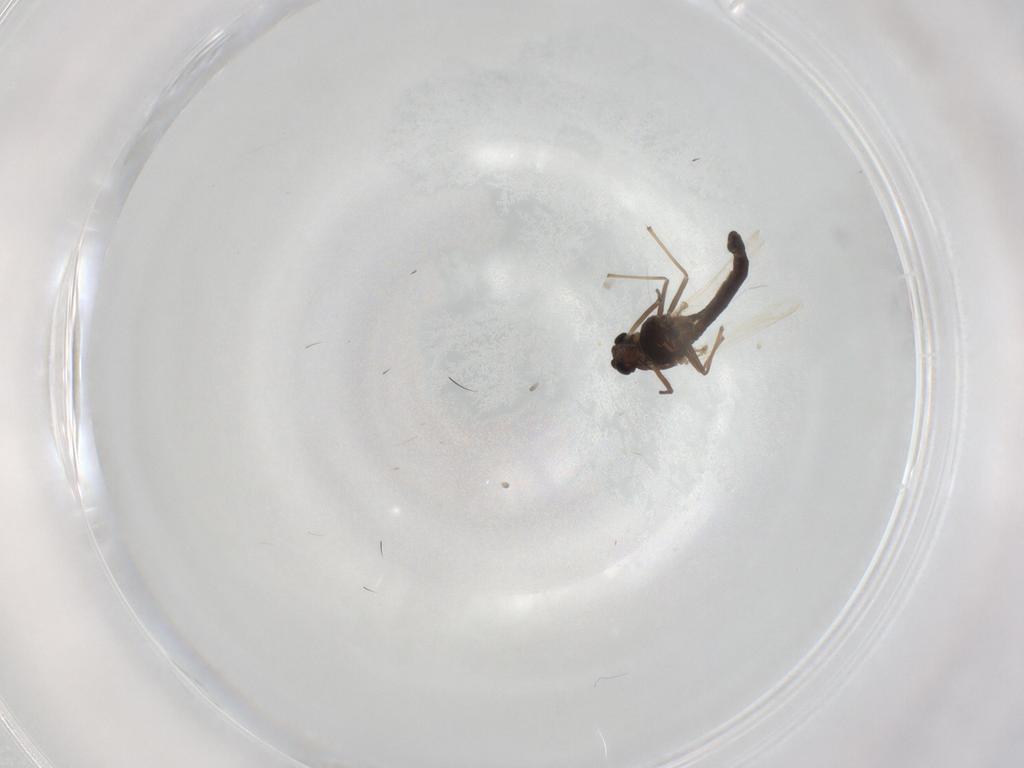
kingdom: Animalia
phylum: Arthropoda
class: Insecta
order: Diptera
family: Chironomidae
